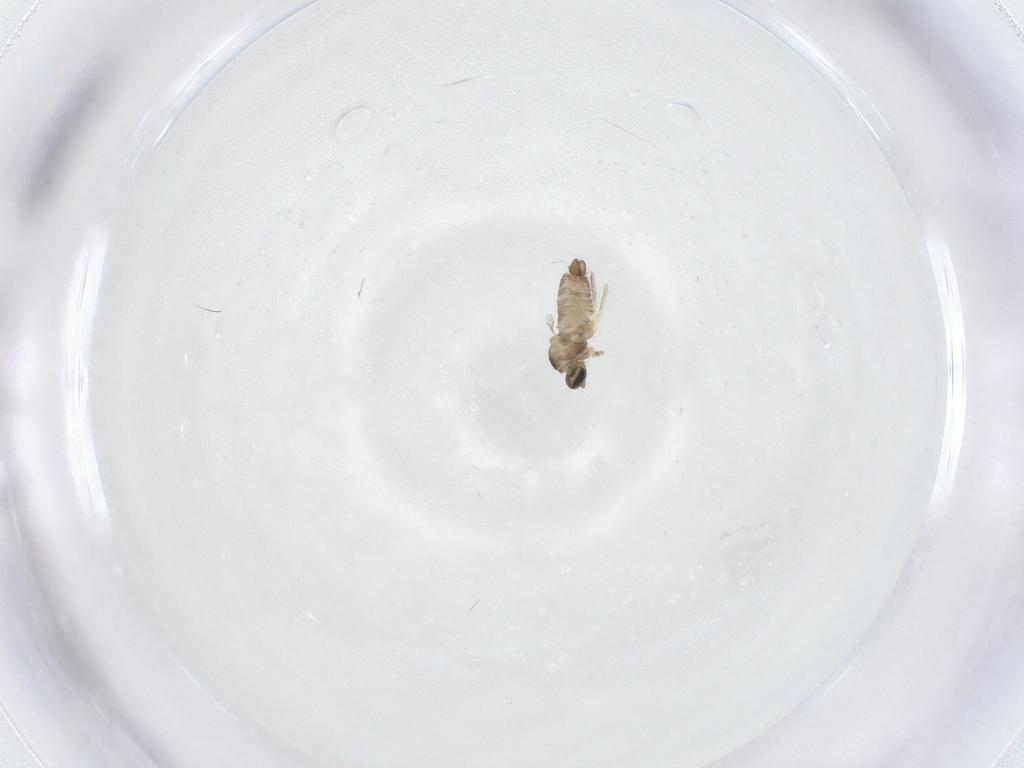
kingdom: Animalia
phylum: Arthropoda
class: Insecta
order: Diptera
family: Cecidomyiidae
